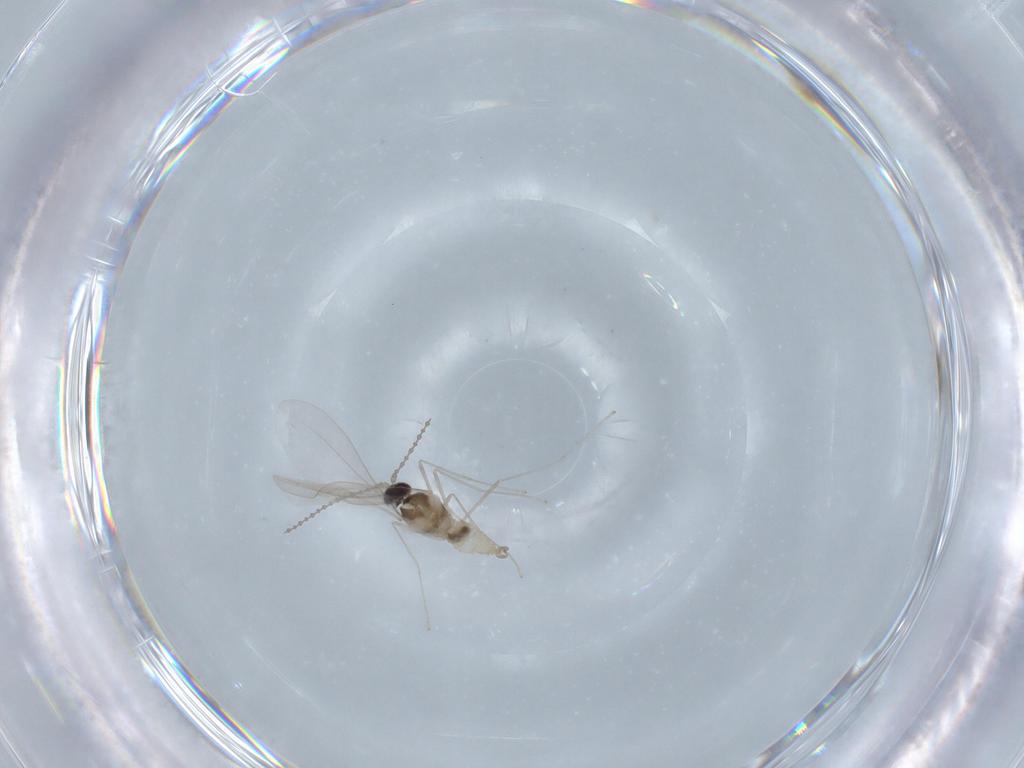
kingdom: Animalia
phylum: Arthropoda
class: Insecta
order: Diptera
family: Cecidomyiidae
